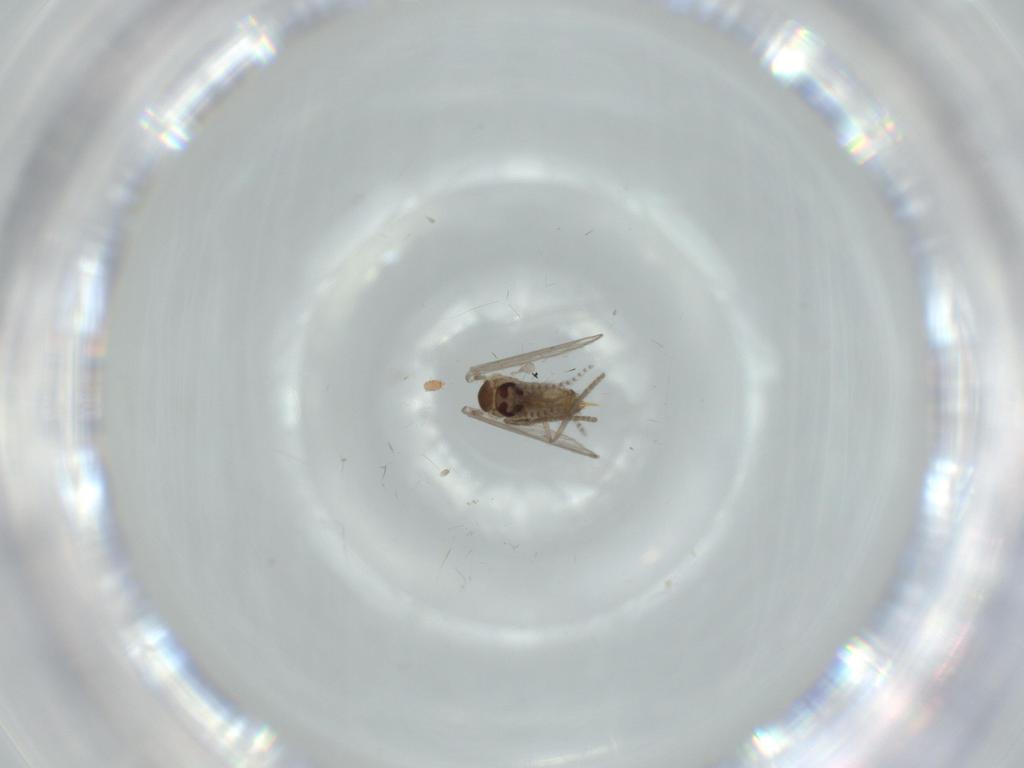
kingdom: Animalia
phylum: Arthropoda
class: Insecta
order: Diptera
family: Psychodidae
